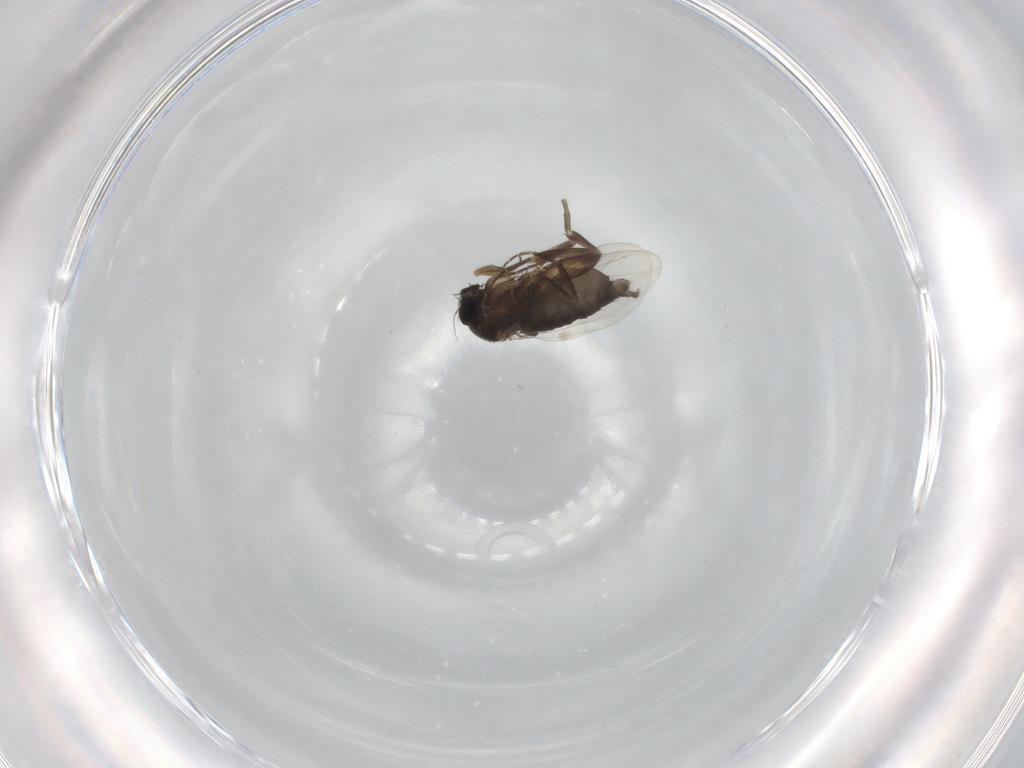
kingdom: Animalia
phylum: Arthropoda
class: Insecta
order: Diptera
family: Phoridae
